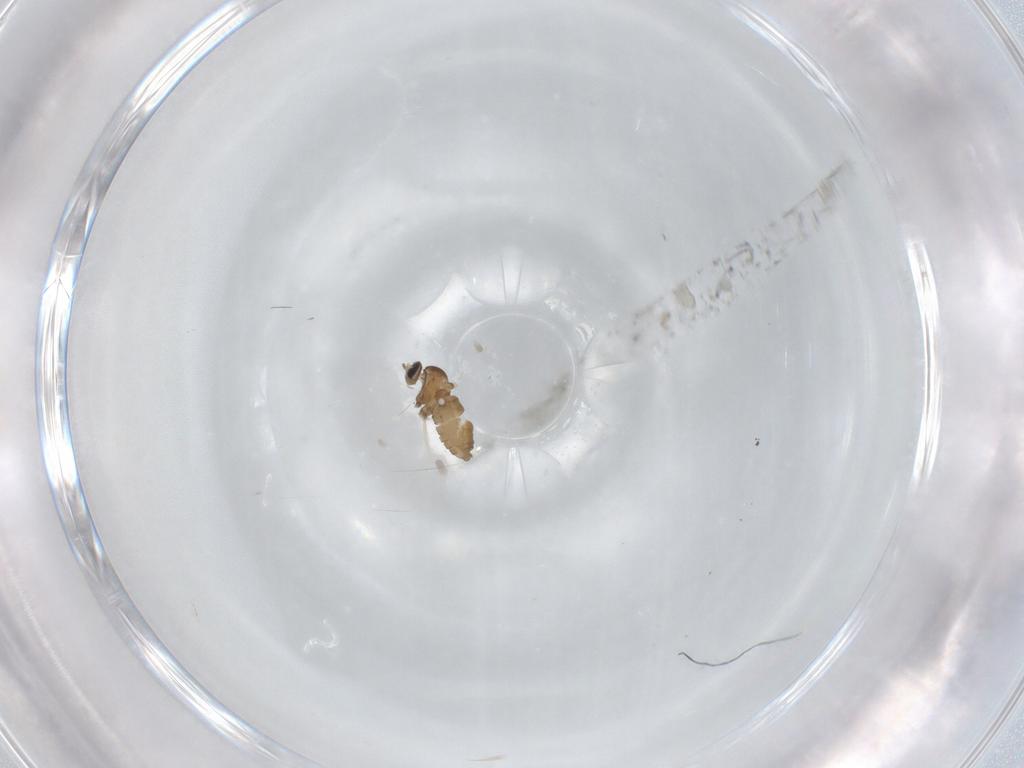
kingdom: Animalia
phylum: Arthropoda
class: Insecta
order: Diptera
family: Cecidomyiidae
